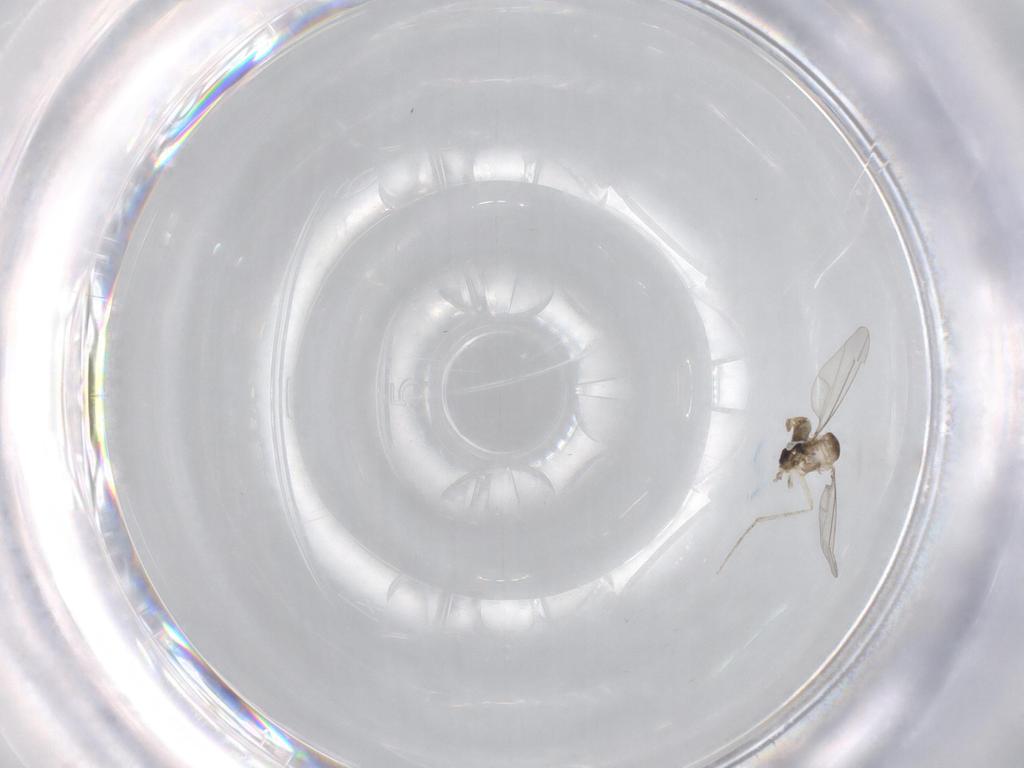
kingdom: Animalia
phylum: Arthropoda
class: Insecta
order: Diptera
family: Cecidomyiidae
